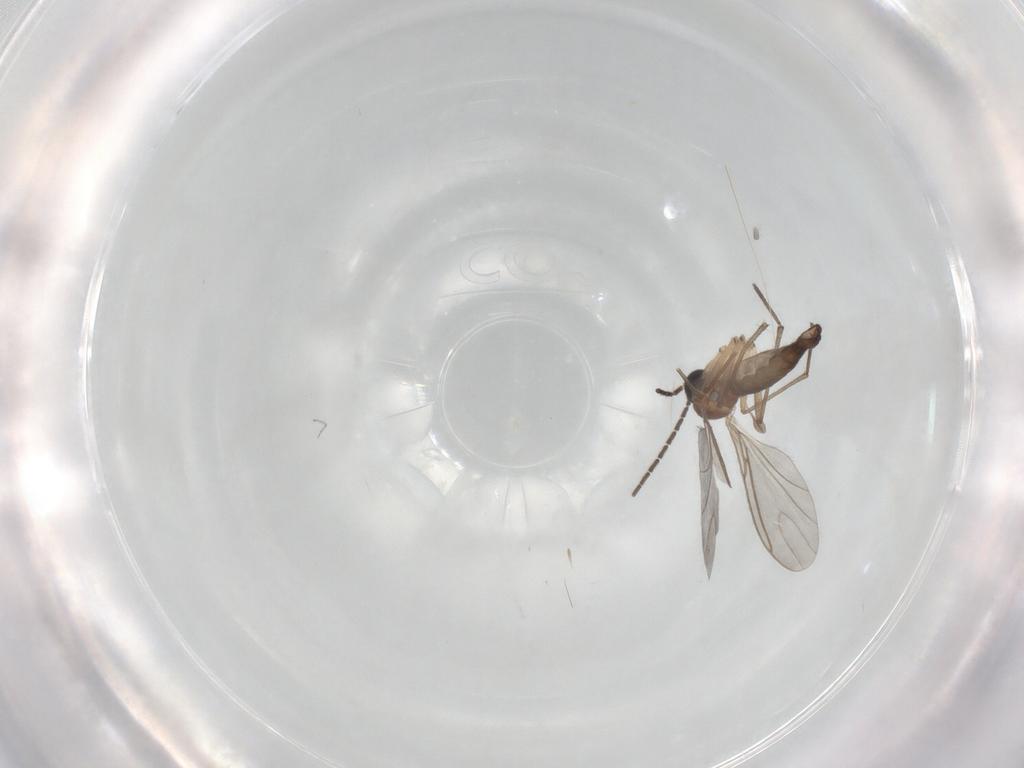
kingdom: Animalia
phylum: Arthropoda
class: Insecta
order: Diptera
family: Sciaridae
